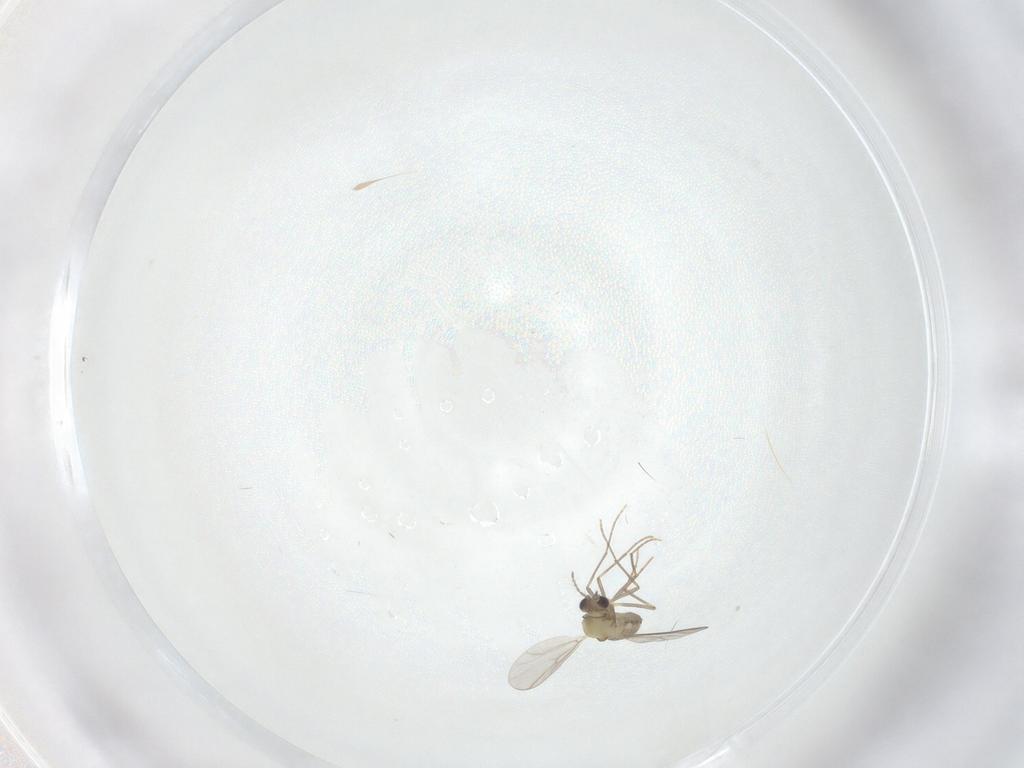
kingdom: Animalia
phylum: Arthropoda
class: Insecta
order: Diptera
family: Chironomidae
